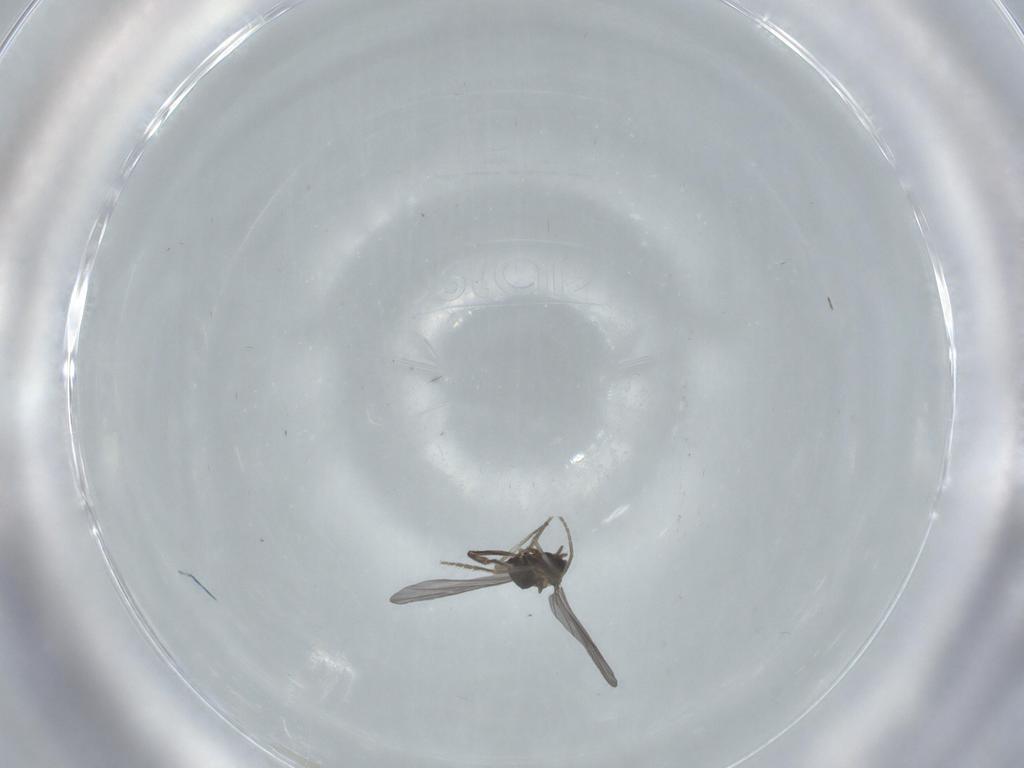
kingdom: Animalia
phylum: Arthropoda
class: Insecta
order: Diptera
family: Phoridae
